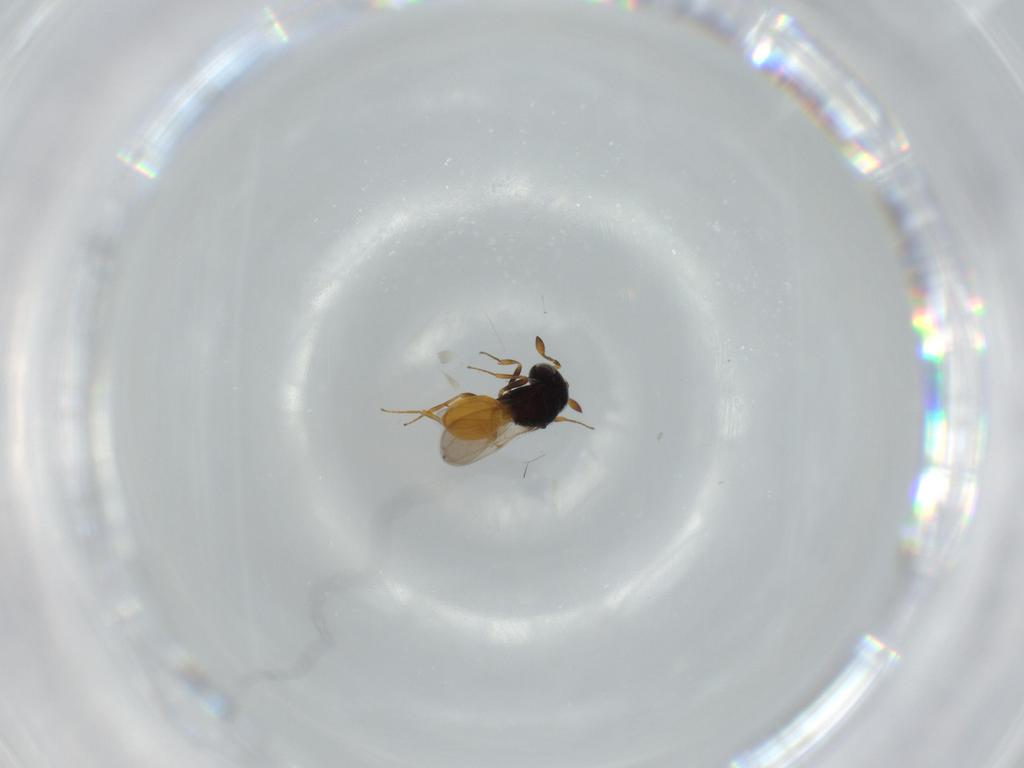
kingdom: Animalia
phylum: Arthropoda
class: Insecta
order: Hymenoptera
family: Scelionidae
